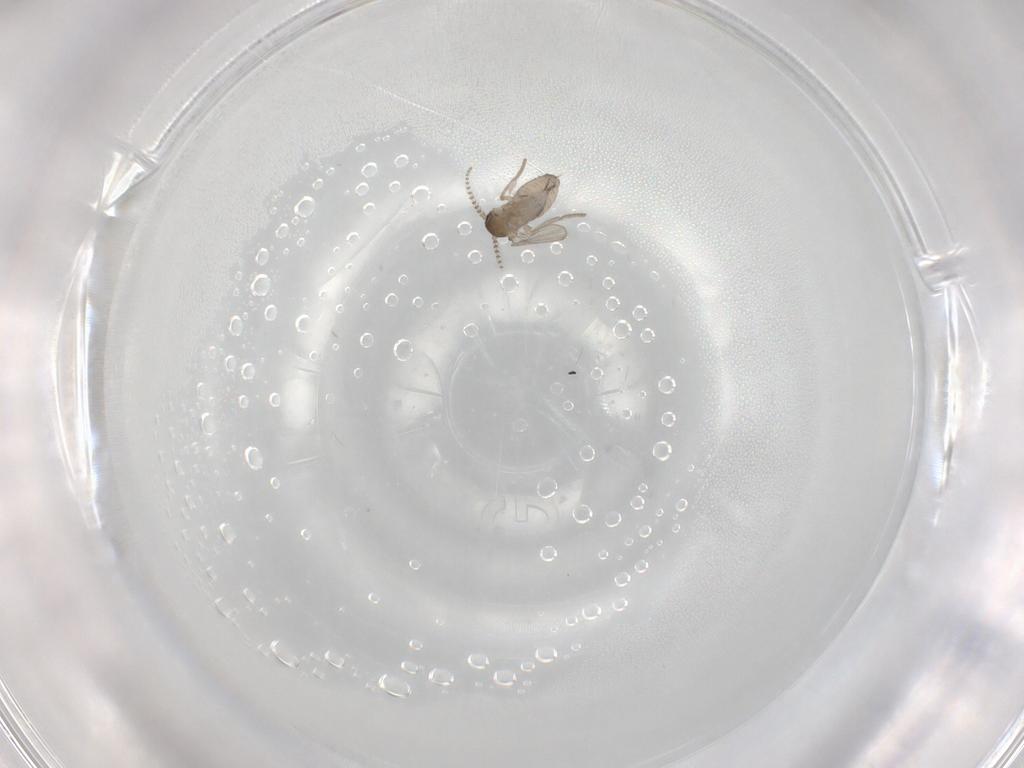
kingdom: Animalia
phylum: Arthropoda
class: Insecta
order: Diptera
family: Psychodidae
